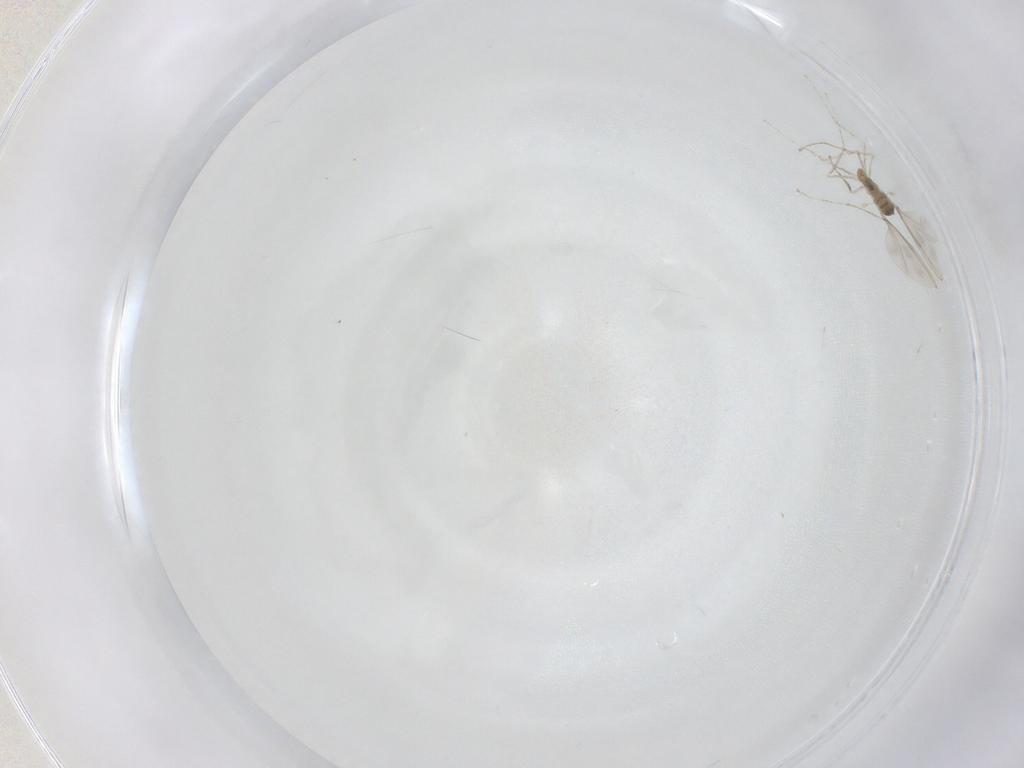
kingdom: Animalia
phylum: Arthropoda
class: Insecta
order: Diptera
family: Cecidomyiidae
